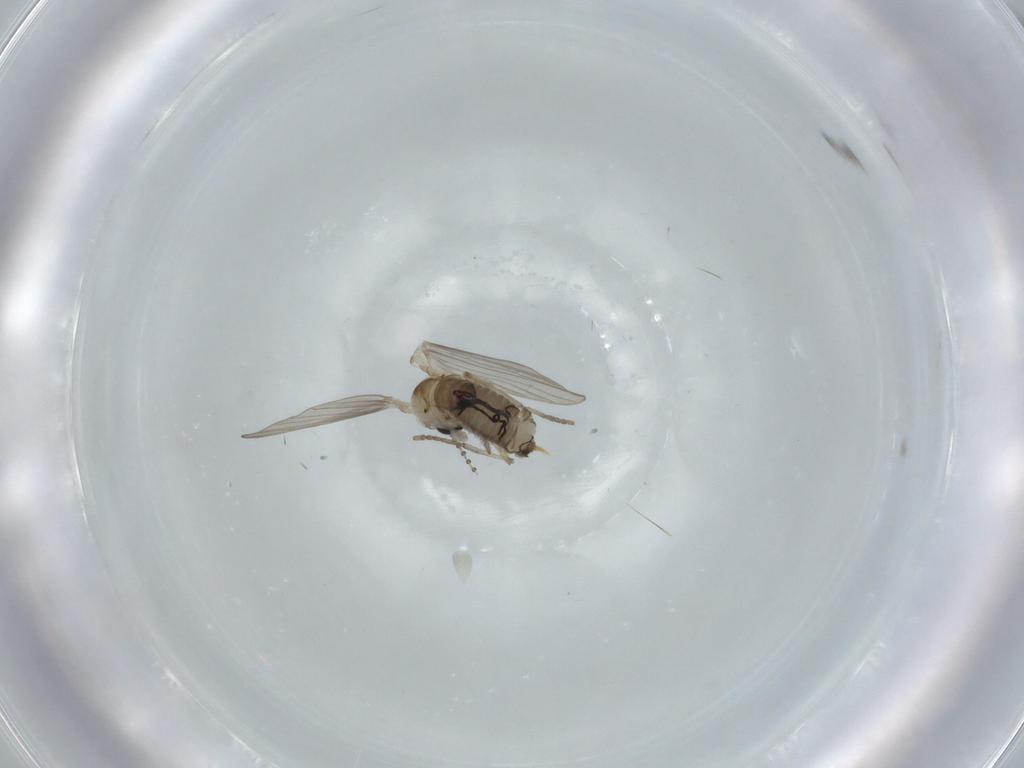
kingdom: Animalia
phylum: Arthropoda
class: Insecta
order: Diptera
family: Psychodidae
